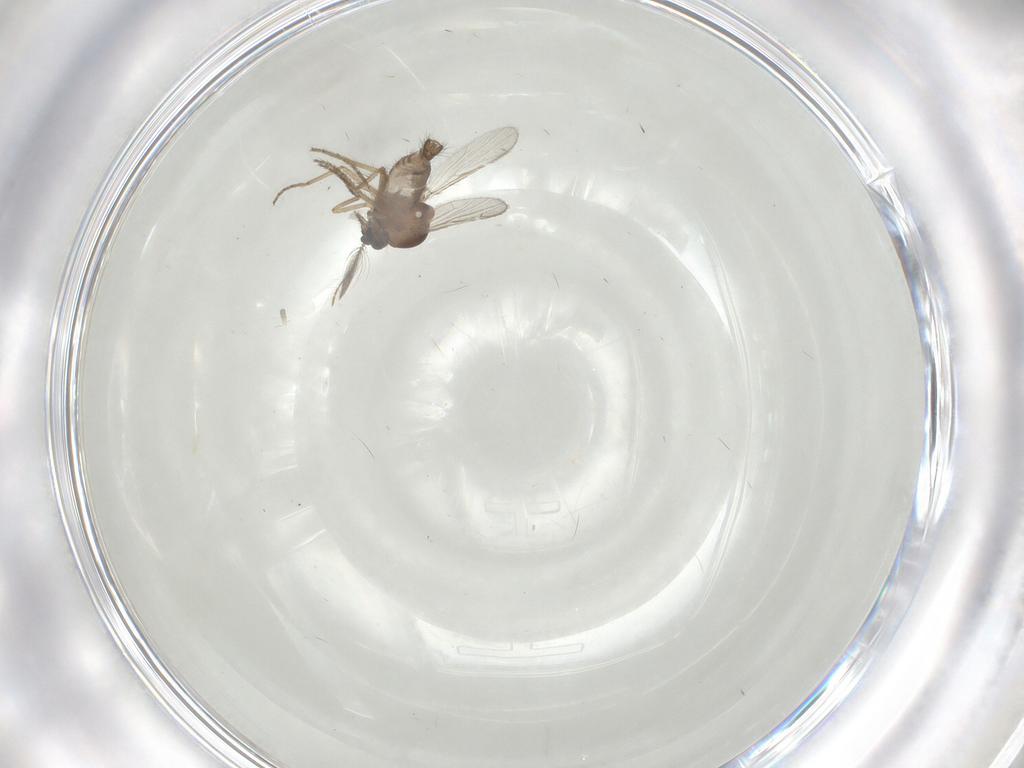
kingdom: Animalia
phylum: Arthropoda
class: Insecta
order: Diptera
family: Ceratopogonidae
